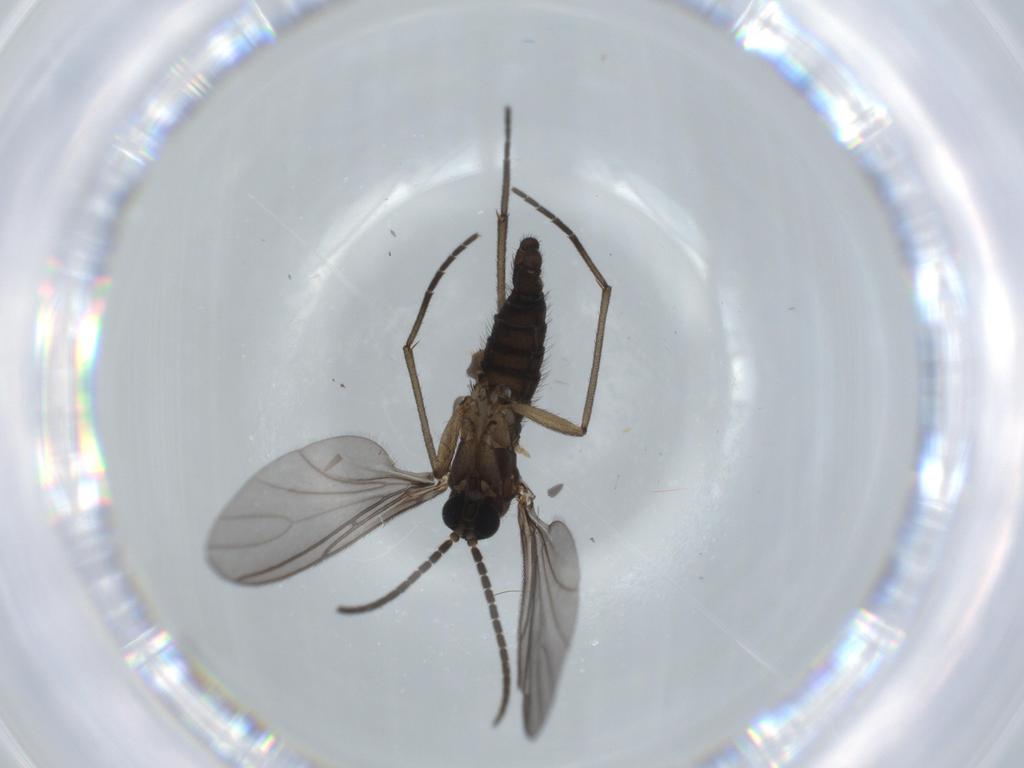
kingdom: Animalia
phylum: Arthropoda
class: Insecta
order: Diptera
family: Sciaridae
